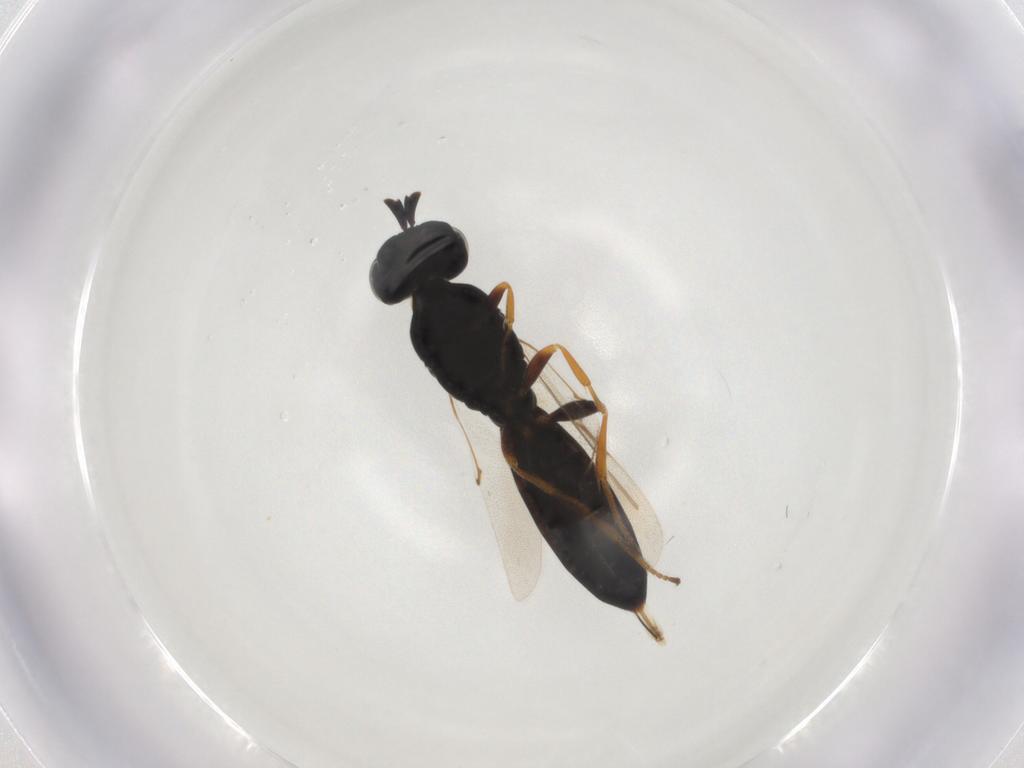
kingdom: Animalia
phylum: Arthropoda
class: Insecta
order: Hymenoptera
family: Scelionidae
